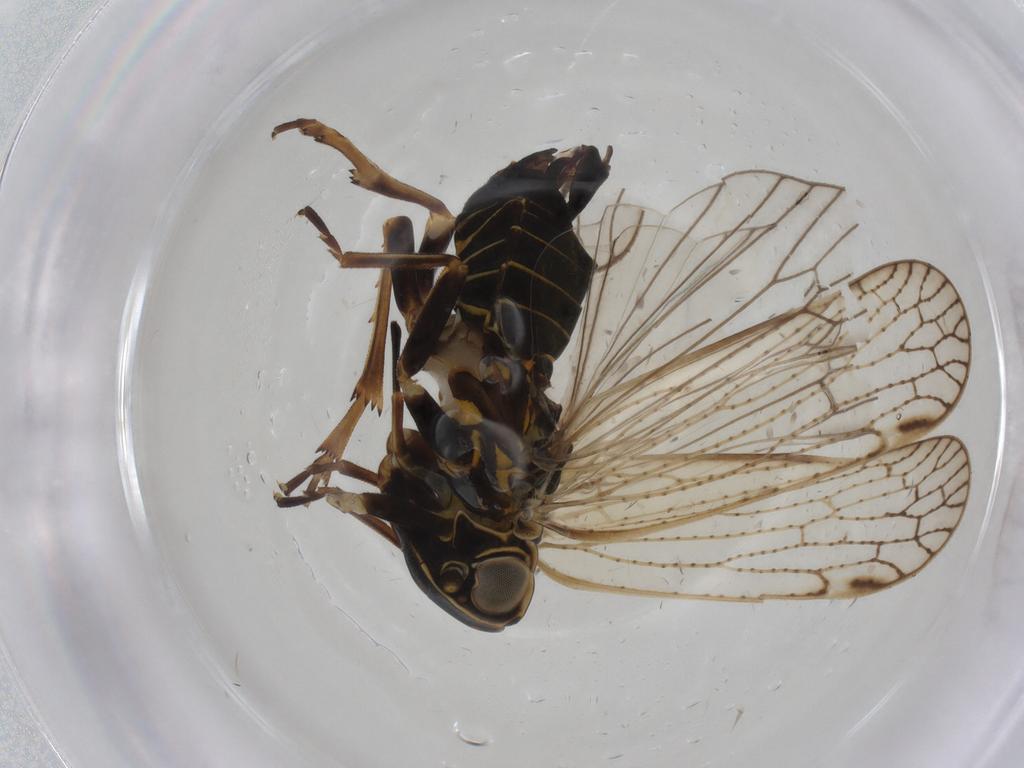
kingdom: Animalia
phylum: Arthropoda
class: Insecta
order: Hemiptera
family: Cixiidae
